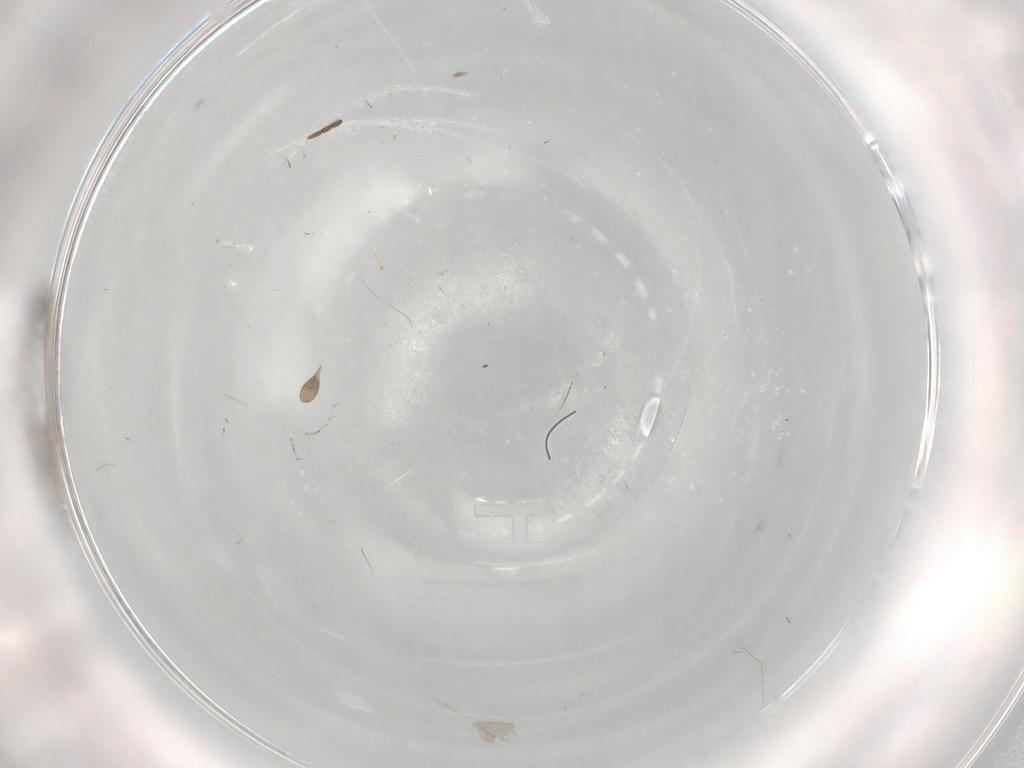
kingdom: Animalia
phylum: Arthropoda
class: Insecta
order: Diptera
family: Sciaridae
